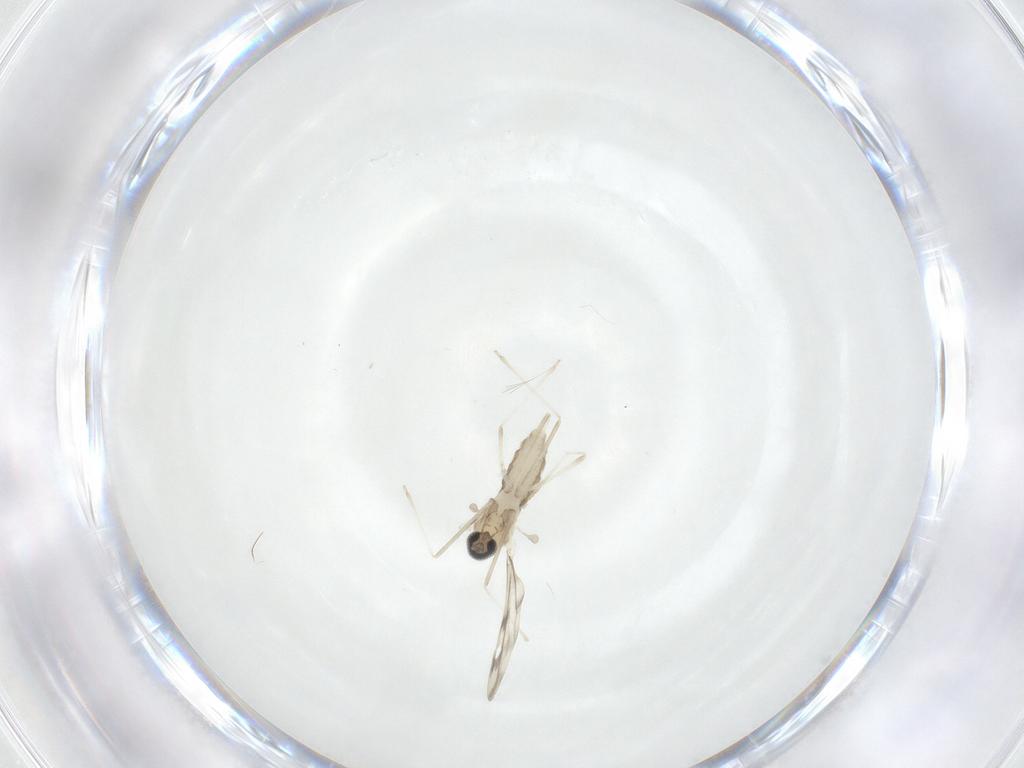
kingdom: Animalia
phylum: Arthropoda
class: Insecta
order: Diptera
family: Cecidomyiidae
